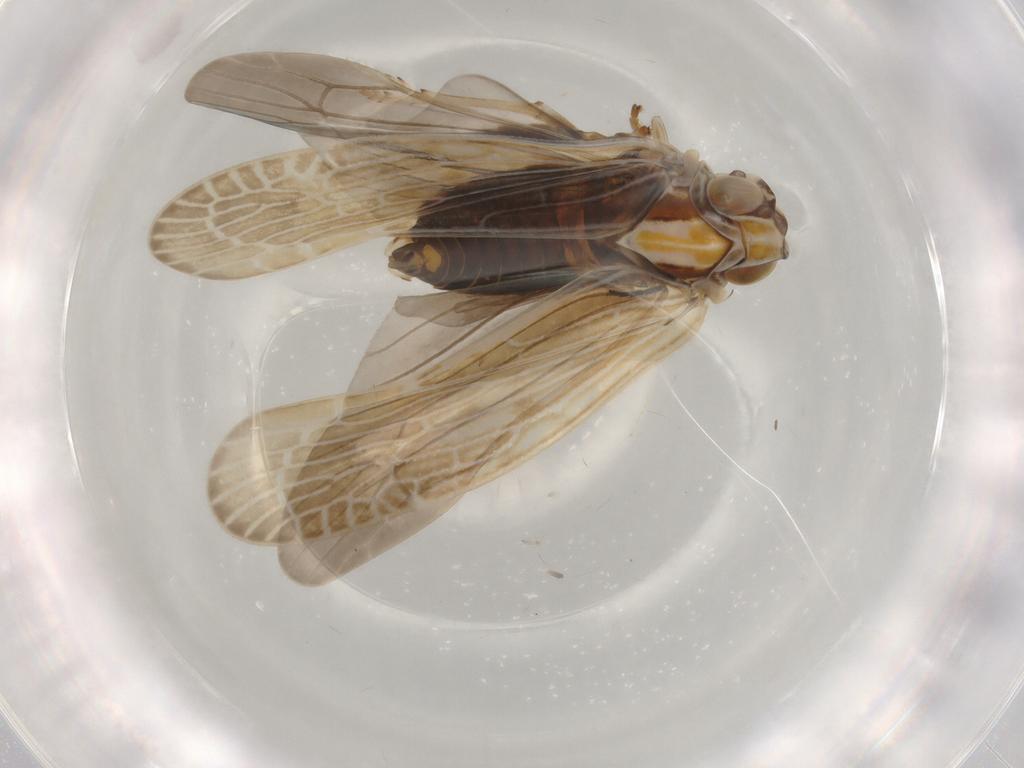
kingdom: Animalia
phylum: Arthropoda
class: Insecta
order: Hemiptera
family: Achilidae
